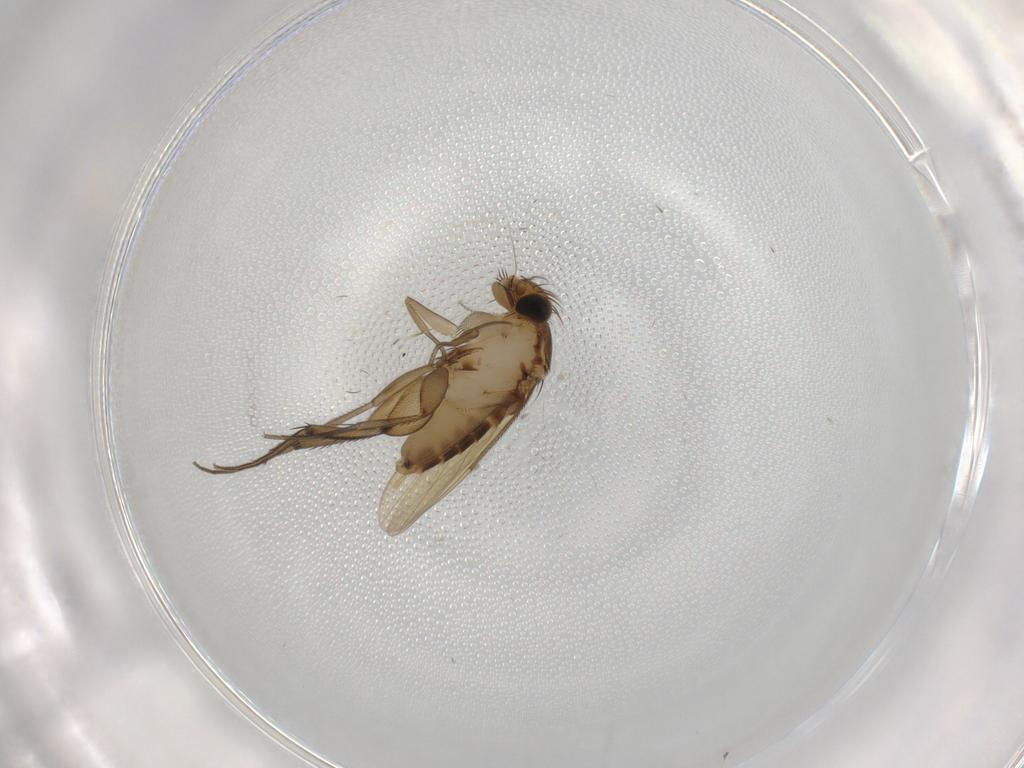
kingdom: Animalia
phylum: Arthropoda
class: Insecta
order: Diptera
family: Phoridae
